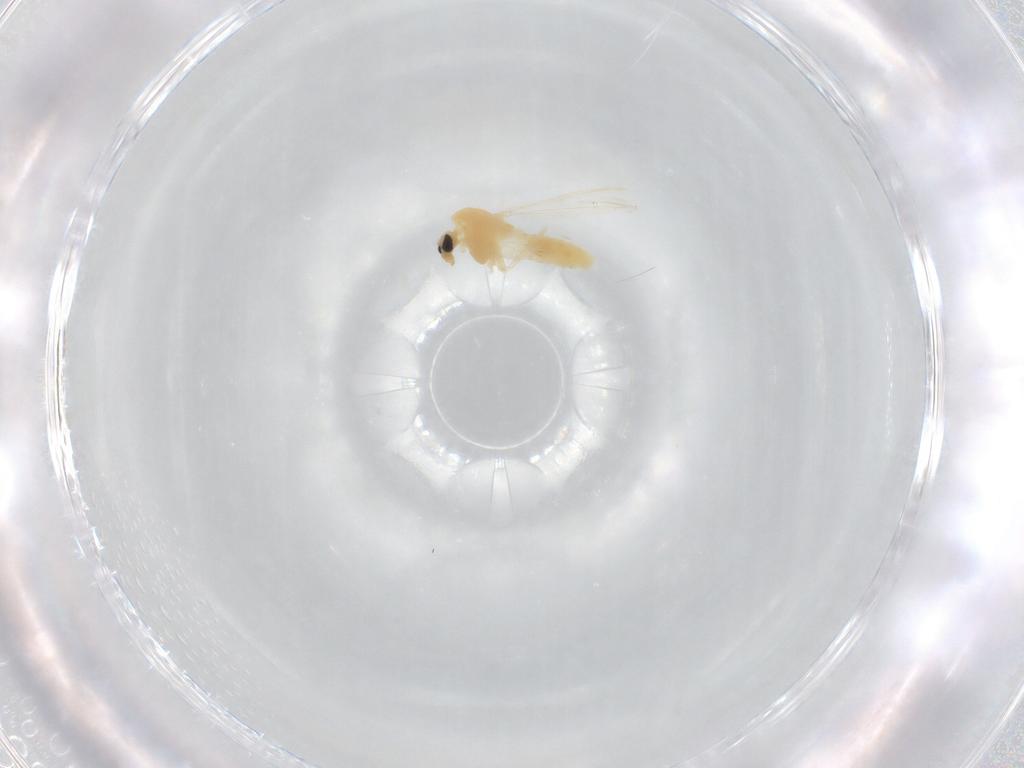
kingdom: Animalia
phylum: Arthropoda
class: Insecta
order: Diptera
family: Chironomidae
